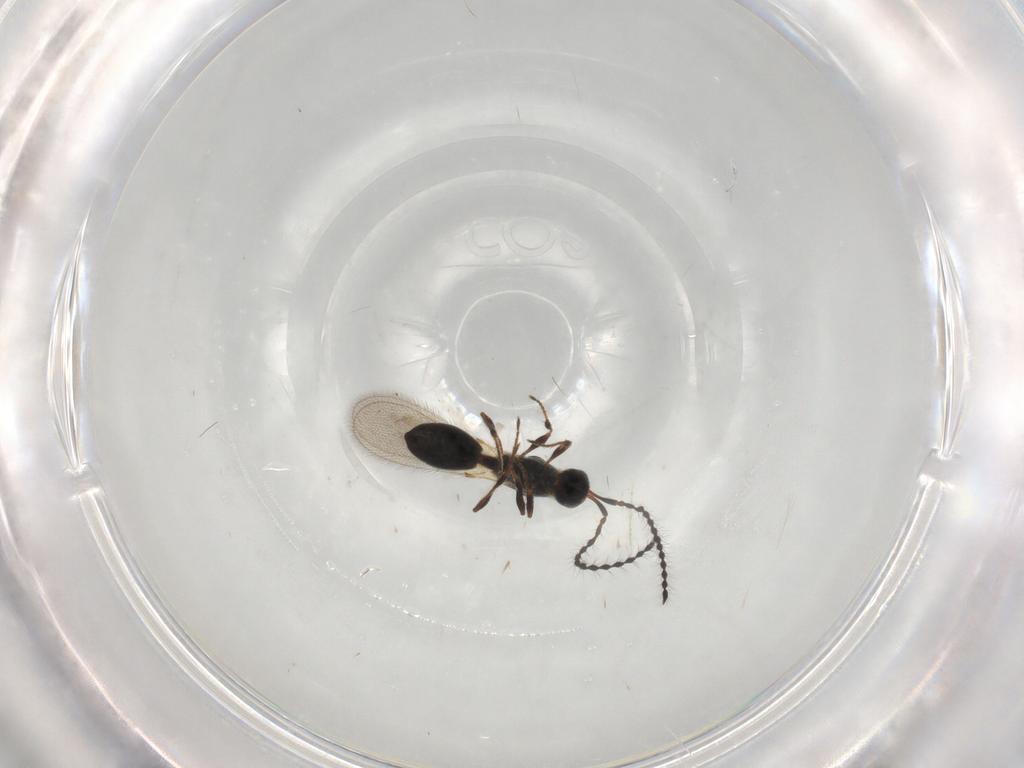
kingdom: Animalia
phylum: Arthropoda
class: Insecta
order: Hymenoptera
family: Diapriidae
